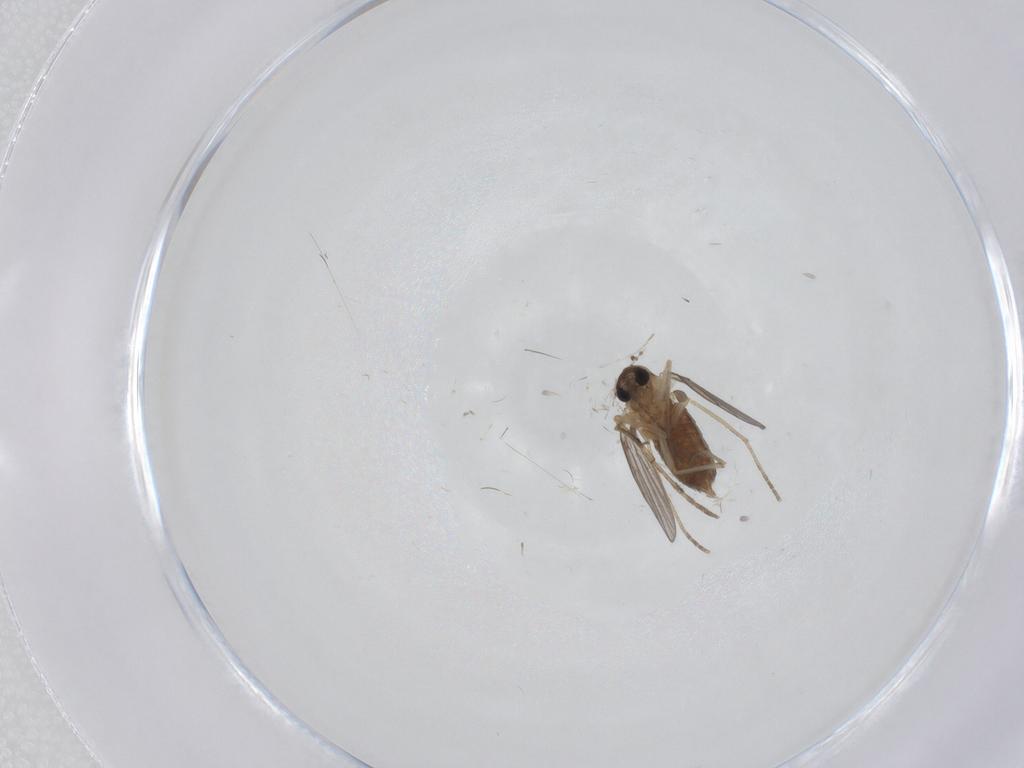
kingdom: Animalia
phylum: Arthropoda
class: Insecta
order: Diptera
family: Cecidomyiidae
